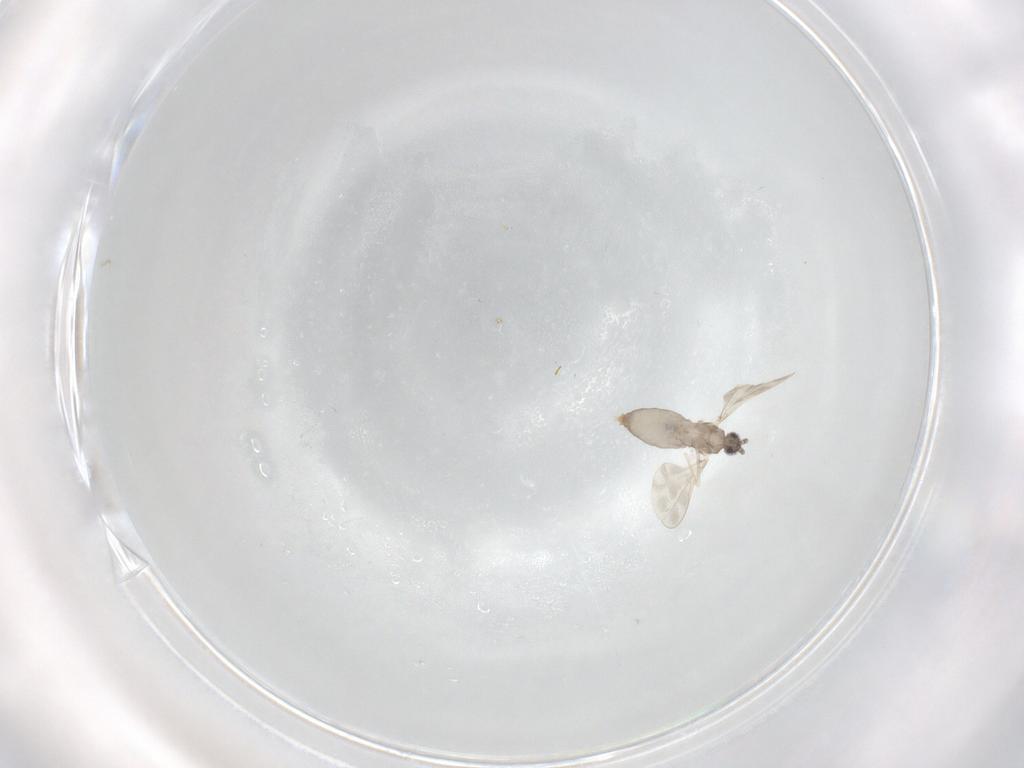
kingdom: Animalia
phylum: Arthropoda
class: Insecta
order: Diptera
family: Cecidomyiidae
